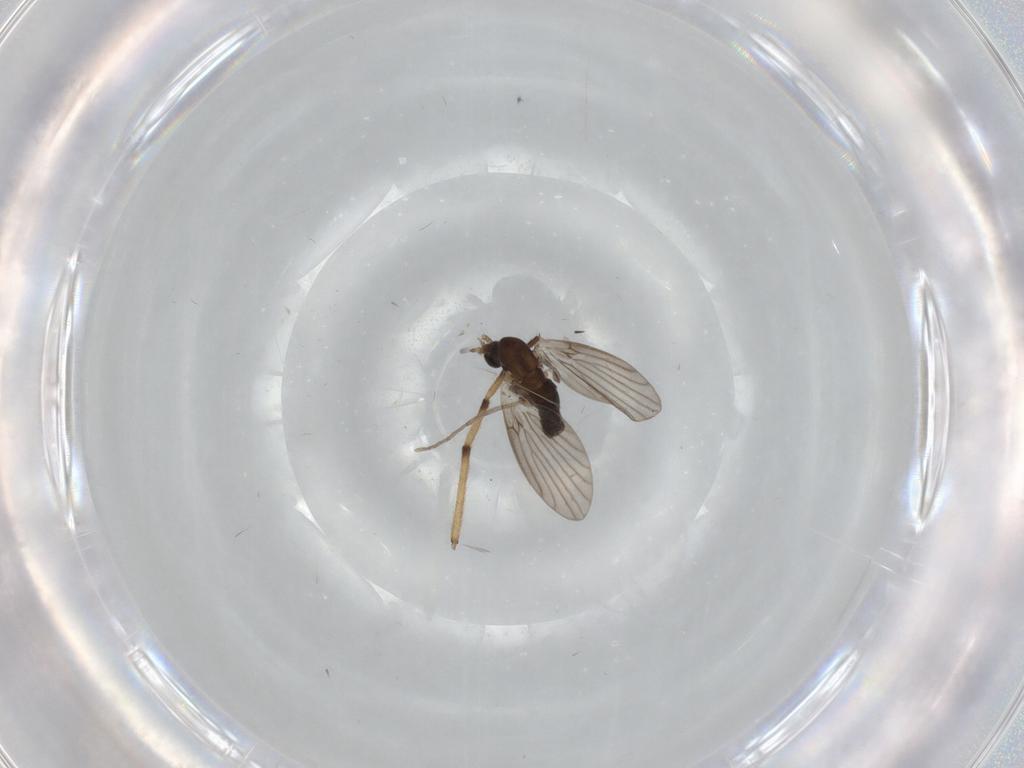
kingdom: Animalia
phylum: Arthropoda
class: Insecta
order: Diptera
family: Chironomidae
